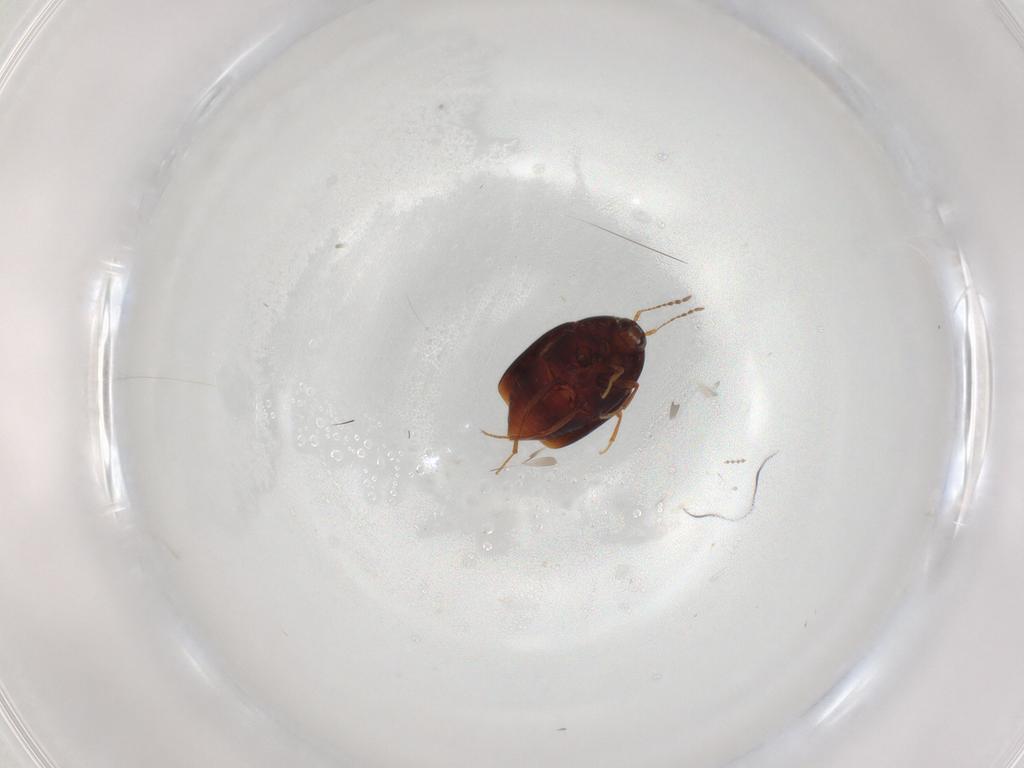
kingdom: Animalia
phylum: Arthropoda
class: Insecta
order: Coleoptera
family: Staphylinidae
